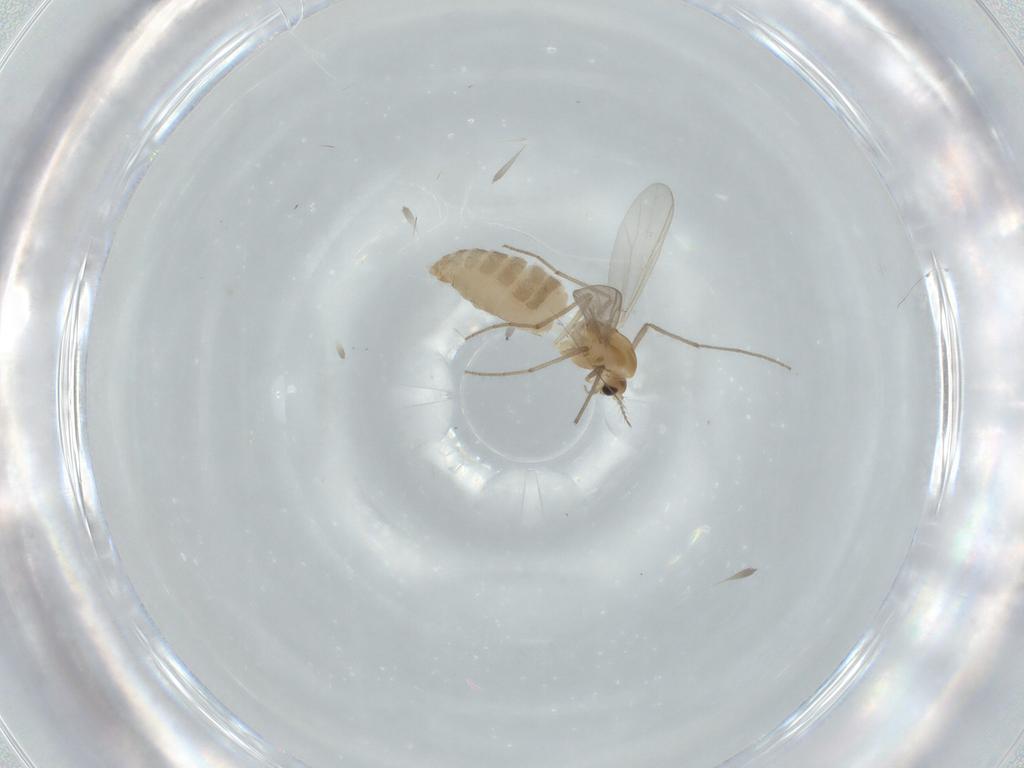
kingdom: Animalia
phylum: Arthropoda
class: Insecta
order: Diptera
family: Chironomidae
